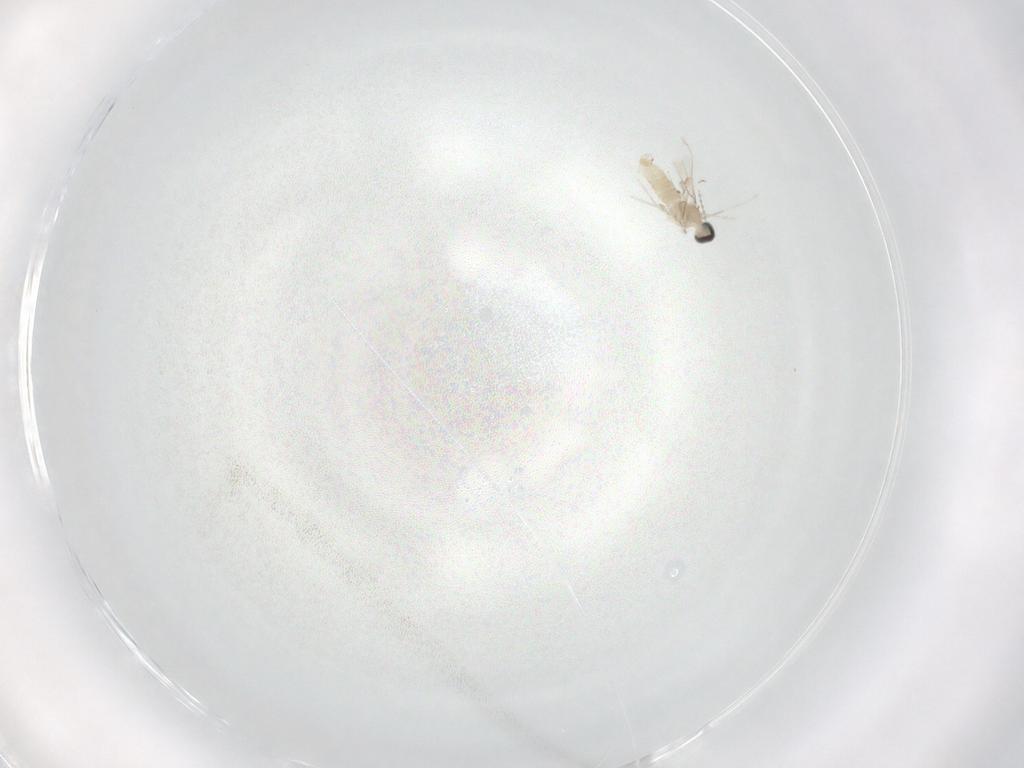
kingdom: Animalia
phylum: Arthropoda
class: Insecta
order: Diptera
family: Cecidomyiidae
